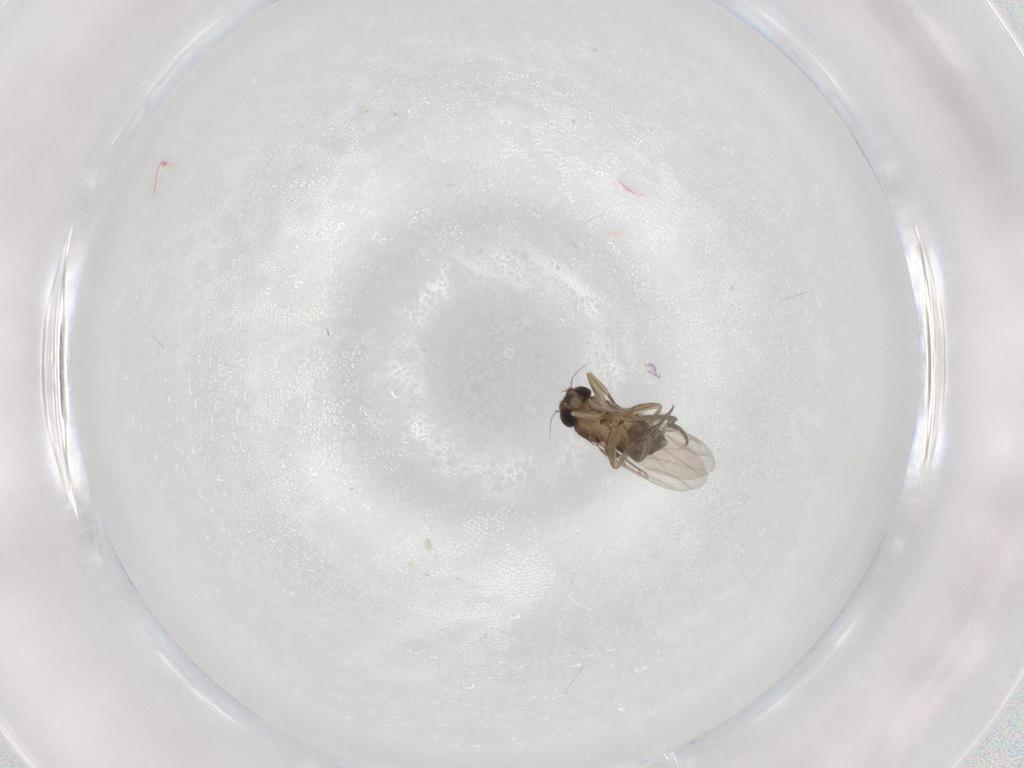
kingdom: Animalia
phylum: Arthropoda
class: Insecta
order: Diptera
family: Phoridae
